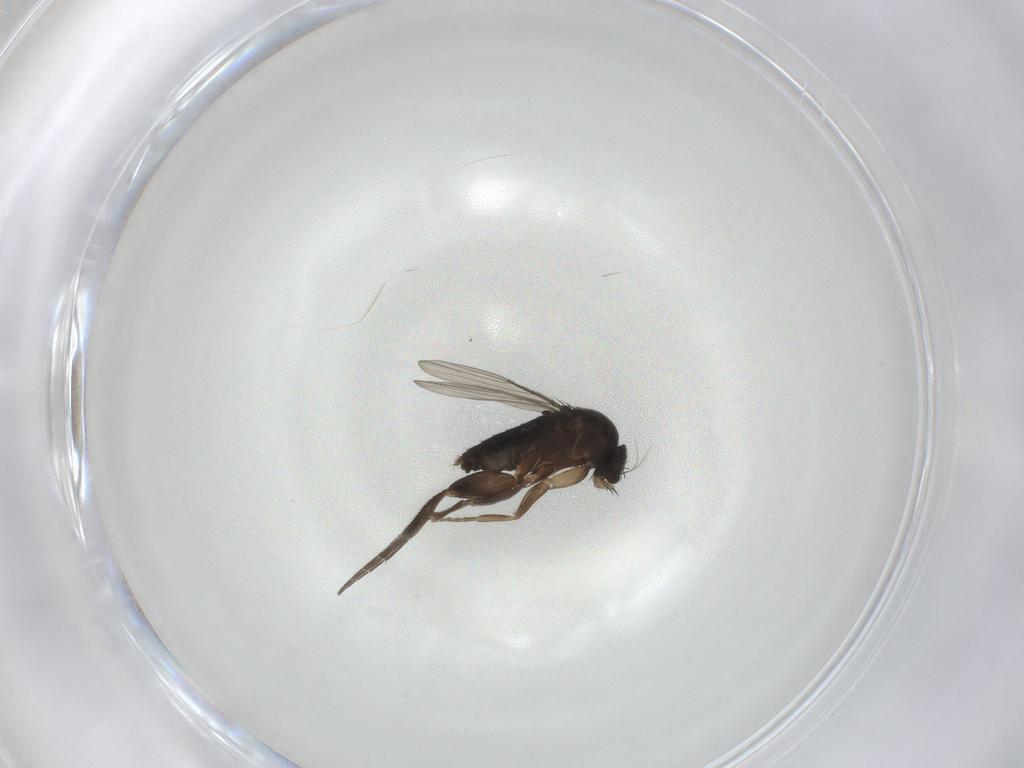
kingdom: Animalia
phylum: Arthropoda
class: Insecta
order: Diptera
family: Phoridae
